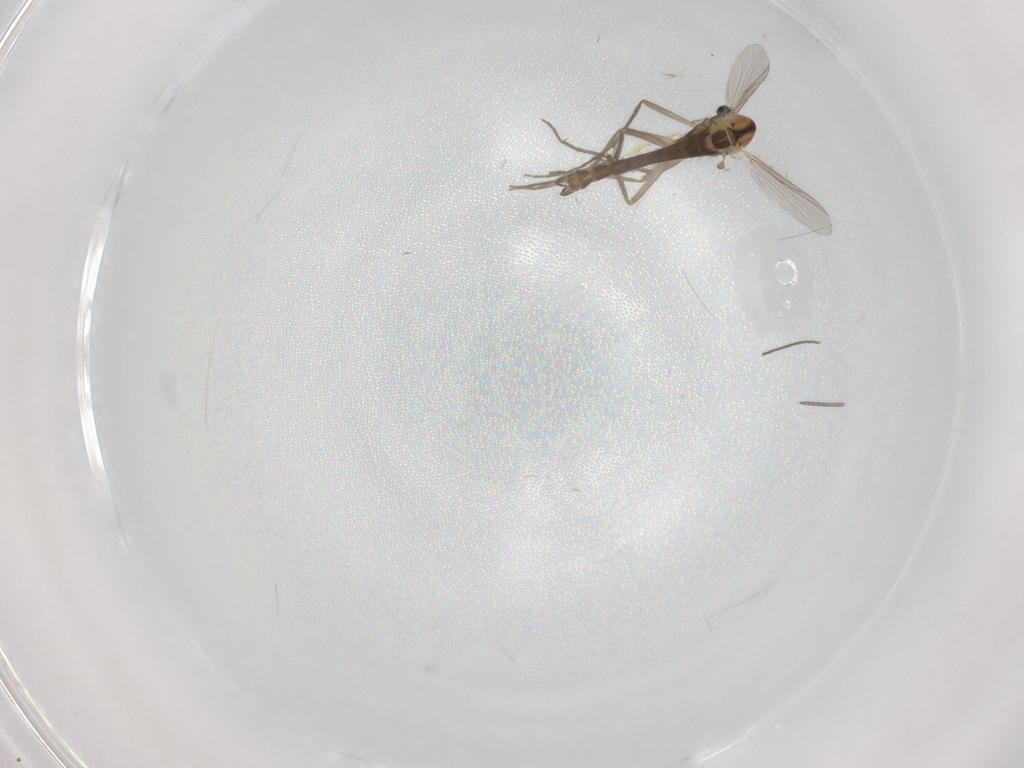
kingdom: Animalia
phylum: Arthropoda
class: Insecta
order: Diptera
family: Chironomidae
